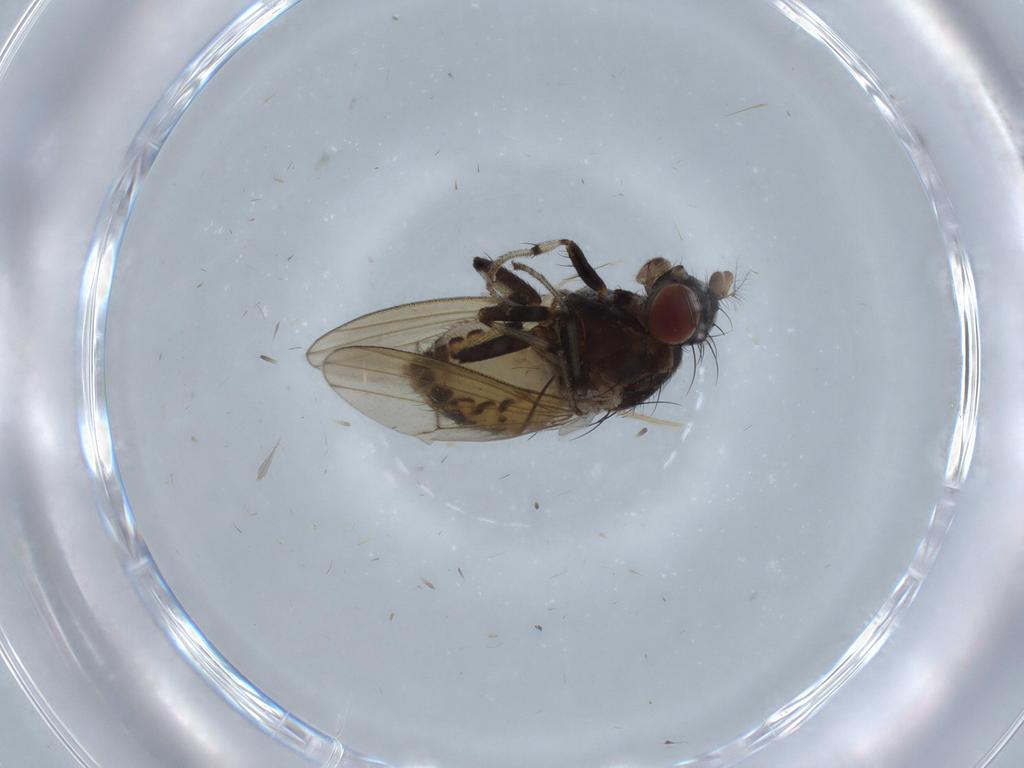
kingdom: Animalia
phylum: Arthropoda
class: Insecta
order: Diptera
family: Lauxaniidae
